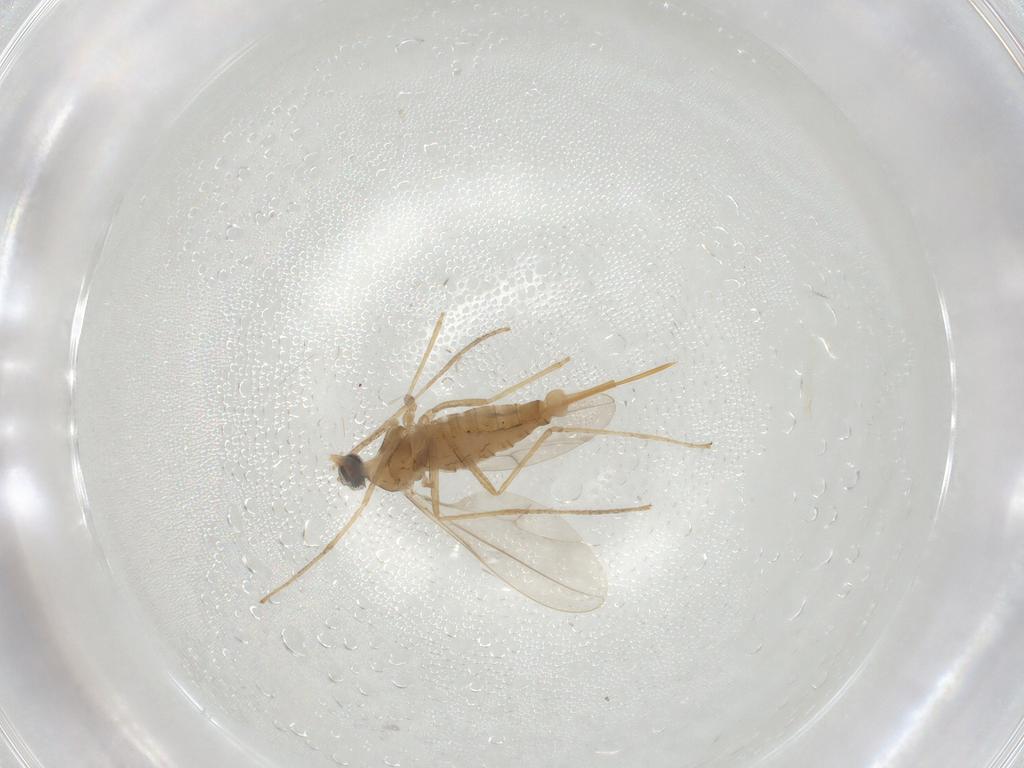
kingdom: Animalia
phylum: Arthropoda
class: Insecta
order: Diptera
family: Cecidomyiidae
